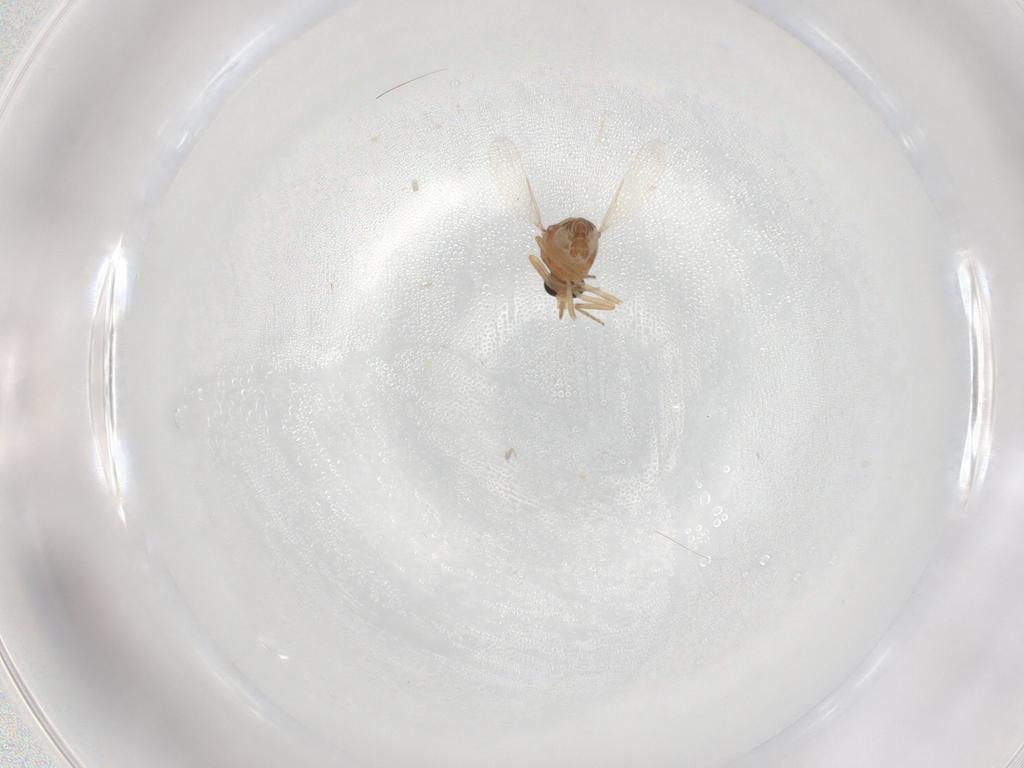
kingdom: Animalia
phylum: Arthropoda
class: Insecta
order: Diptera
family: Ceratopogonidae
